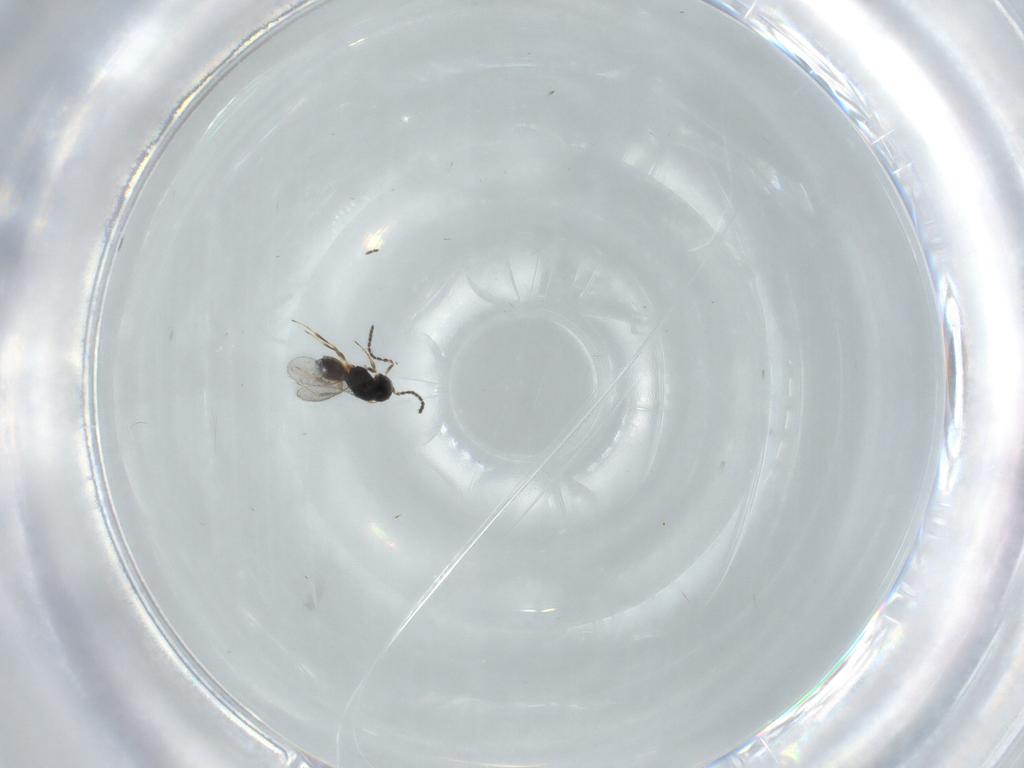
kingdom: Animalia
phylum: Arthropoda
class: Insecta
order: Hymenoptera
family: Scelionidae
